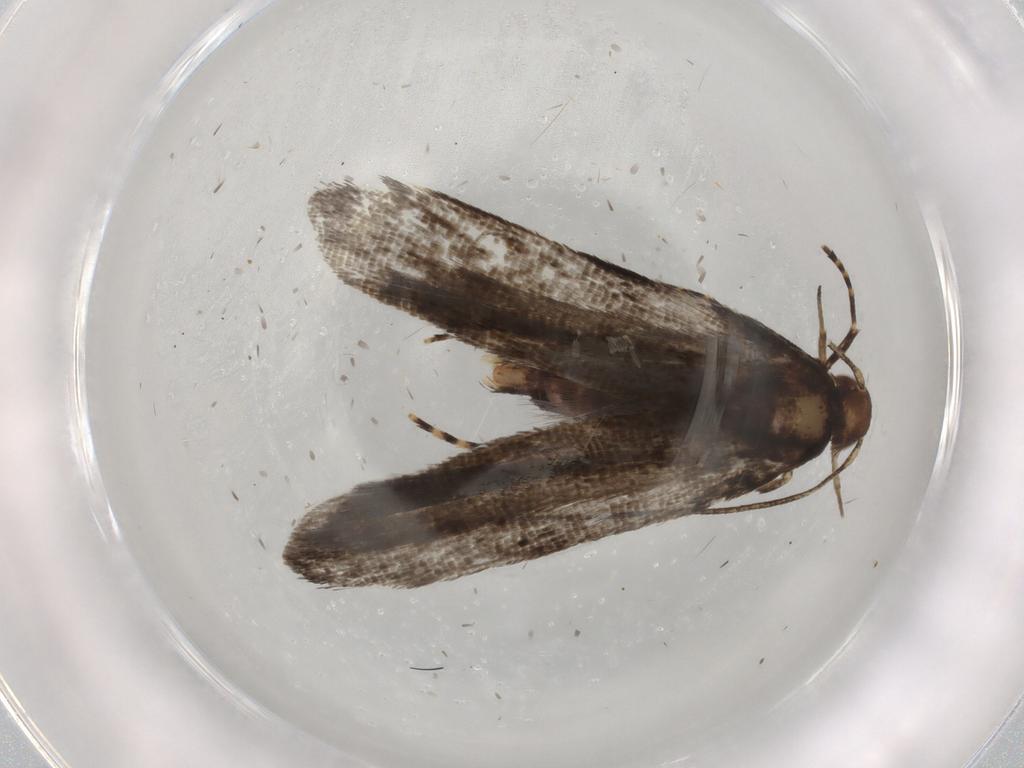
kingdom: Animalia
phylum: Arthropoda
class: Insecta
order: Lepidoptera
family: Gelechiidae
